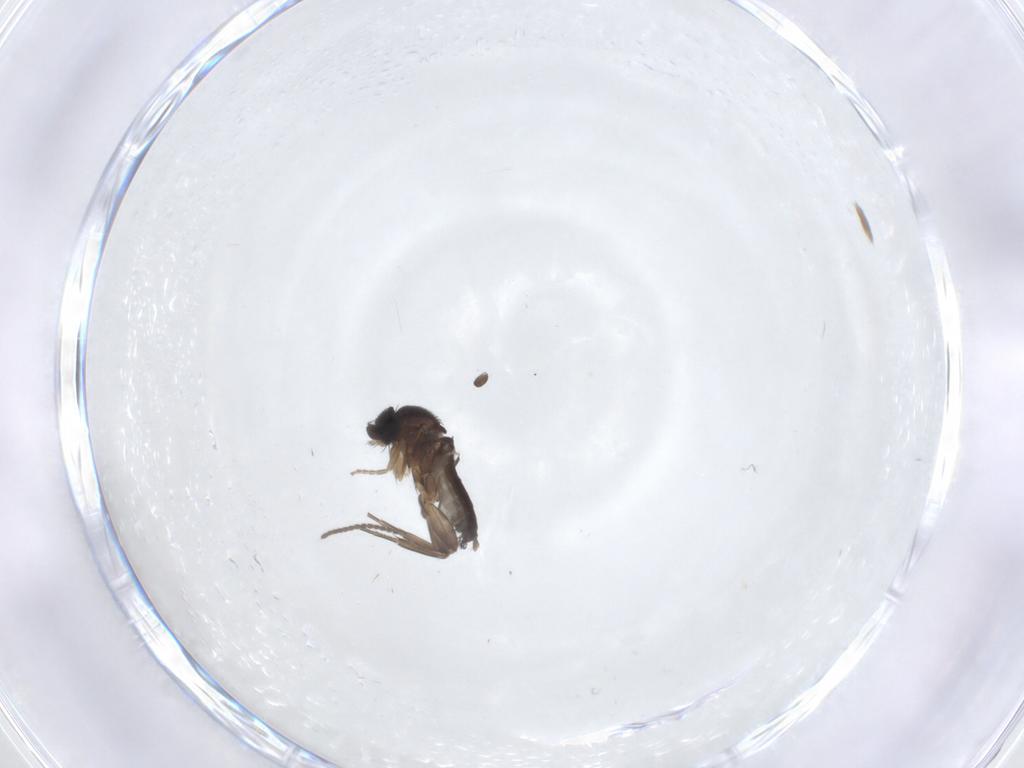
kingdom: Animalia
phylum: Arthropoda
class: Insecta
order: Diptera
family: Phoridae
